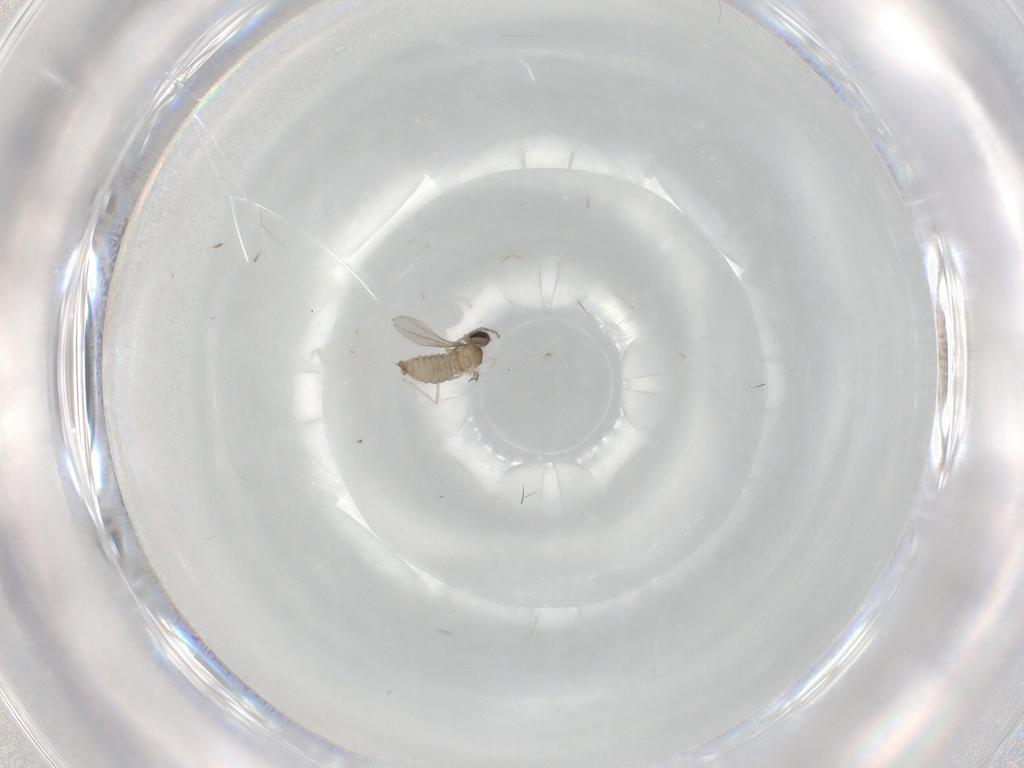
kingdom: Animalia
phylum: Arthropoda
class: Insecta
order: Diptera
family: Cecidomyiidae
